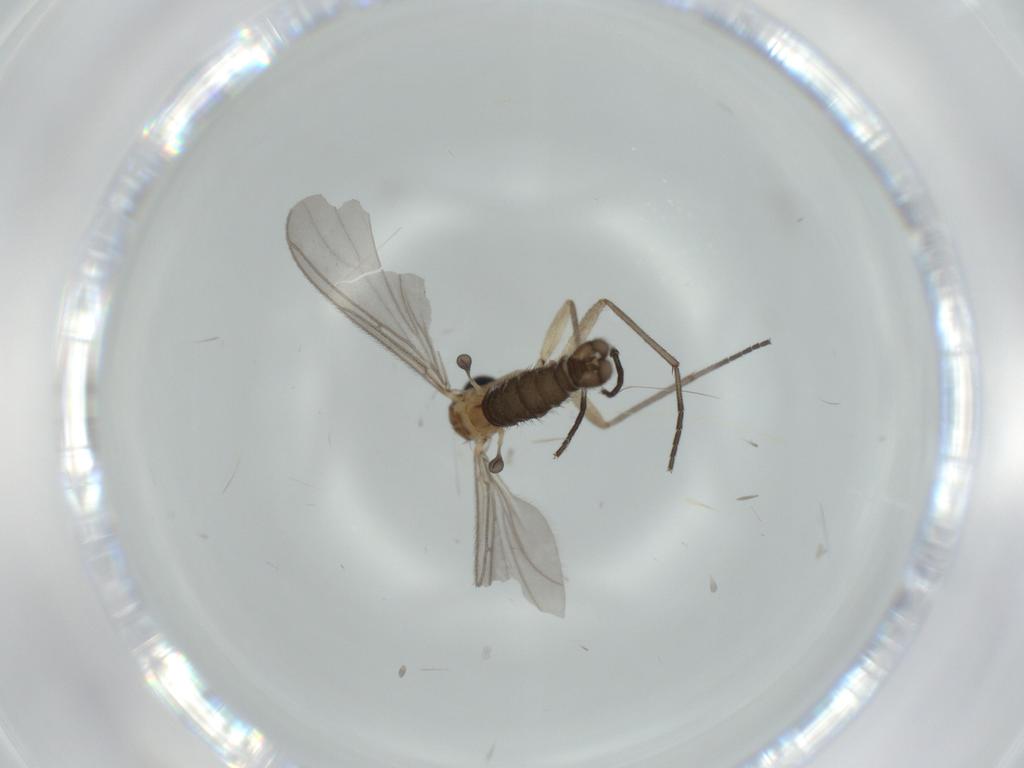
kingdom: Animalia
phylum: Arthropoda
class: Insecta
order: Diptera
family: Sciaridae
